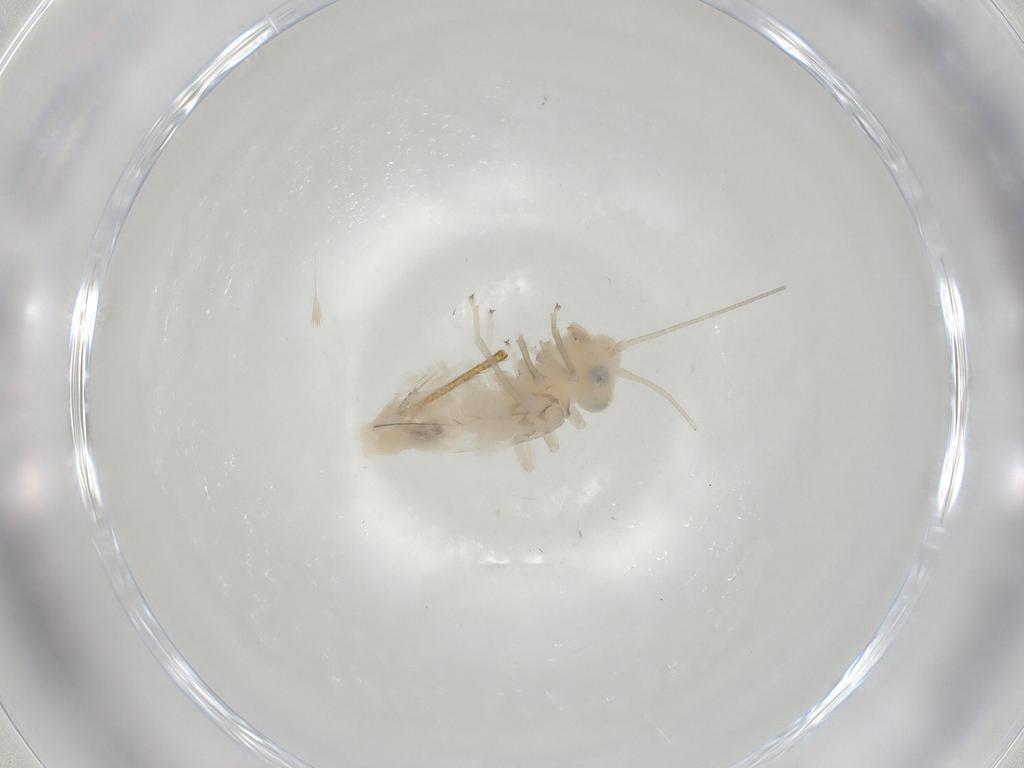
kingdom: Animalia
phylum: Arthropoda
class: Insecta
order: Psocodea
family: Caeciliusidae
